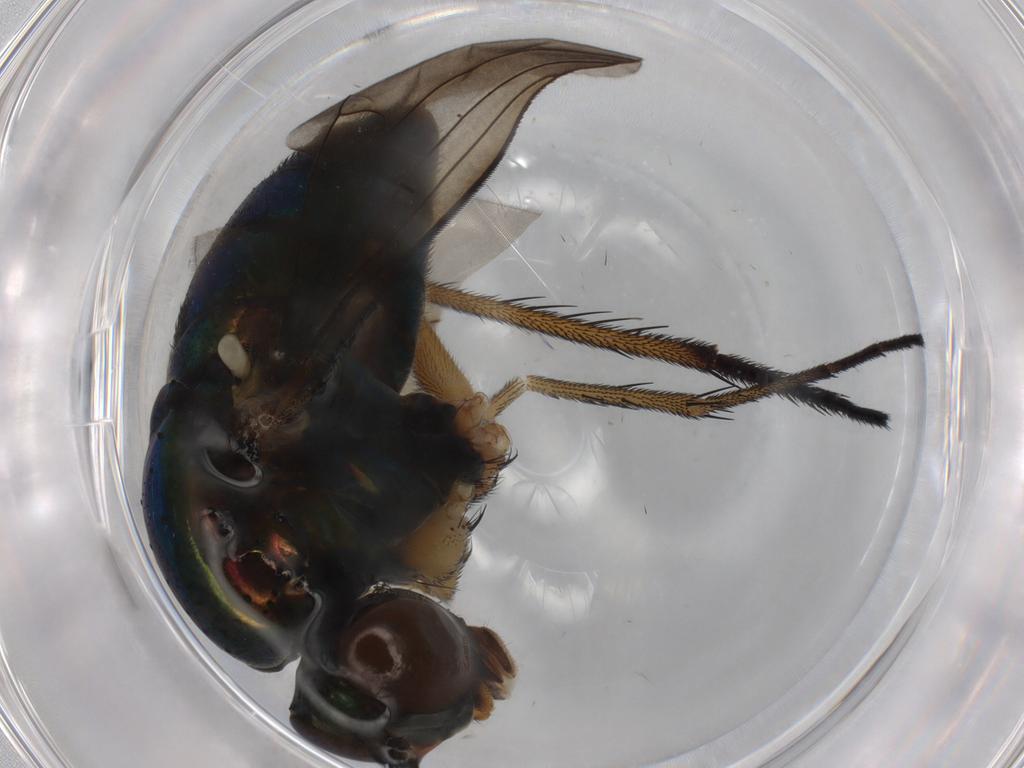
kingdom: Animalia
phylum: Arthropoda
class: Insecta
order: Diptera
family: Dolichopodidae
